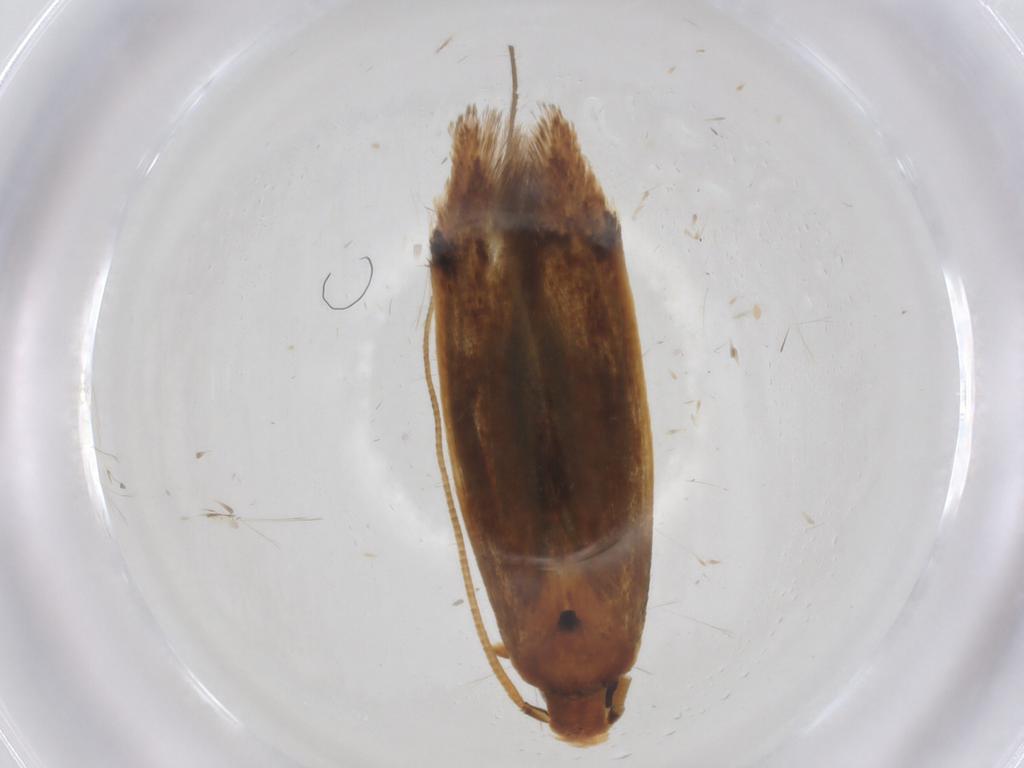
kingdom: Animalia
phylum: Arthropoda
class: Insecta
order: Lepidoptera
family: Tineidae
